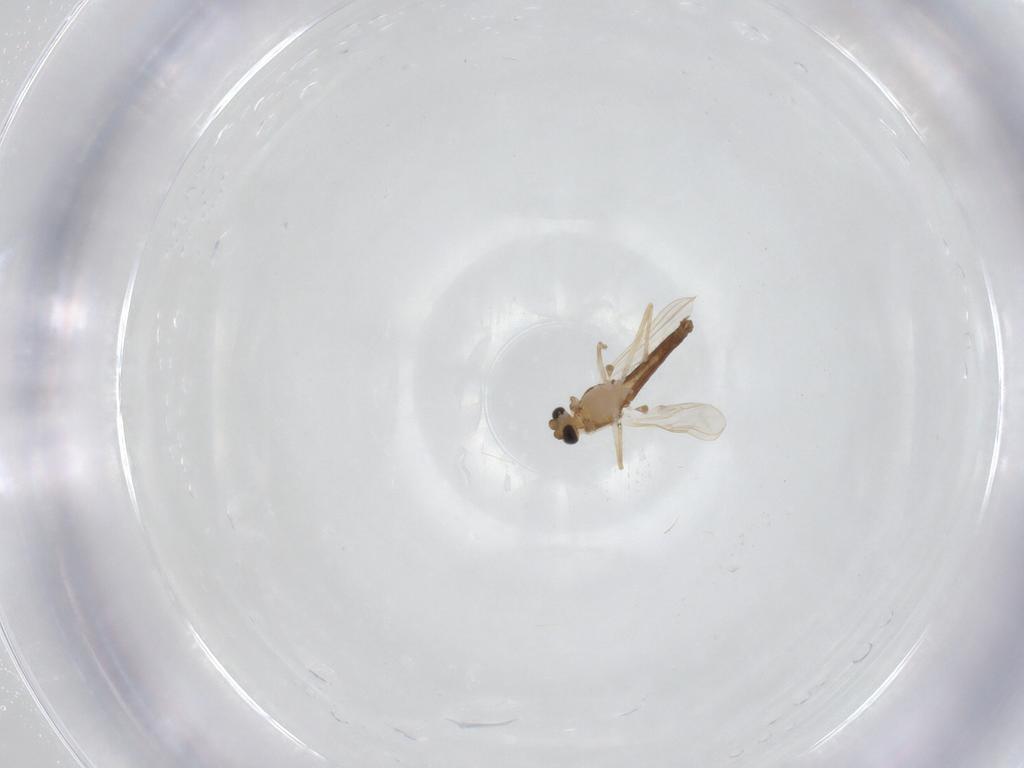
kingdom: Animalia
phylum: Arthropoda
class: Insecta
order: Diptera
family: Chironomidae
